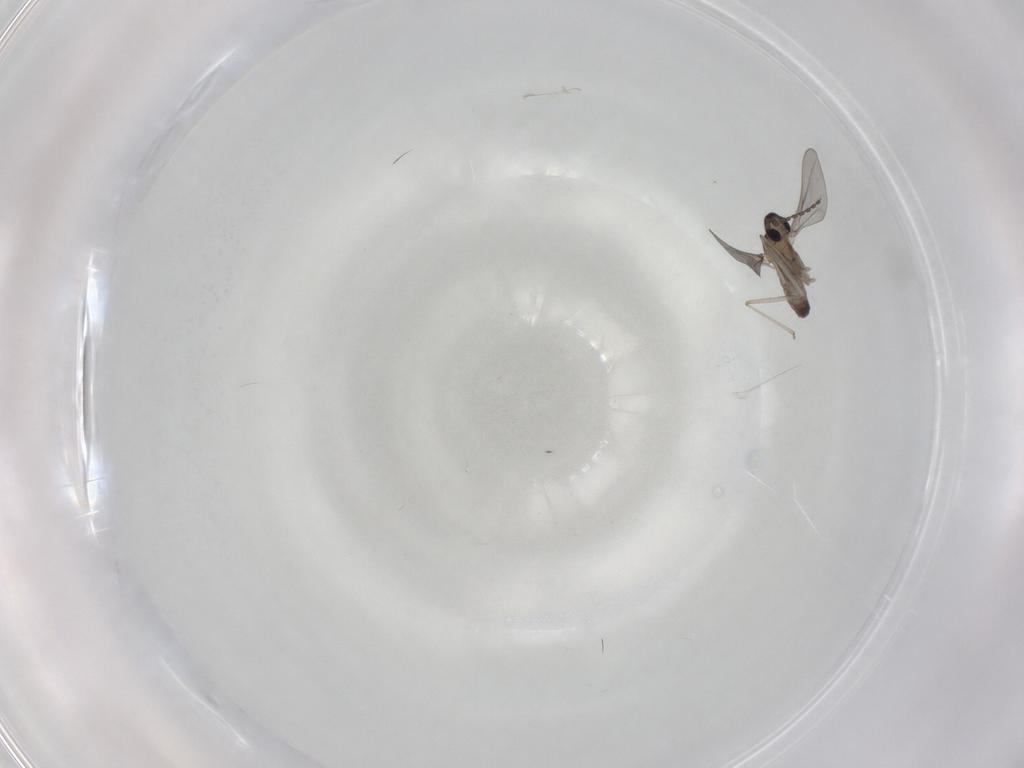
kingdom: Animalia
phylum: Arthropoda
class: Insecta
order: Diptera
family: Cecidomyiidae
